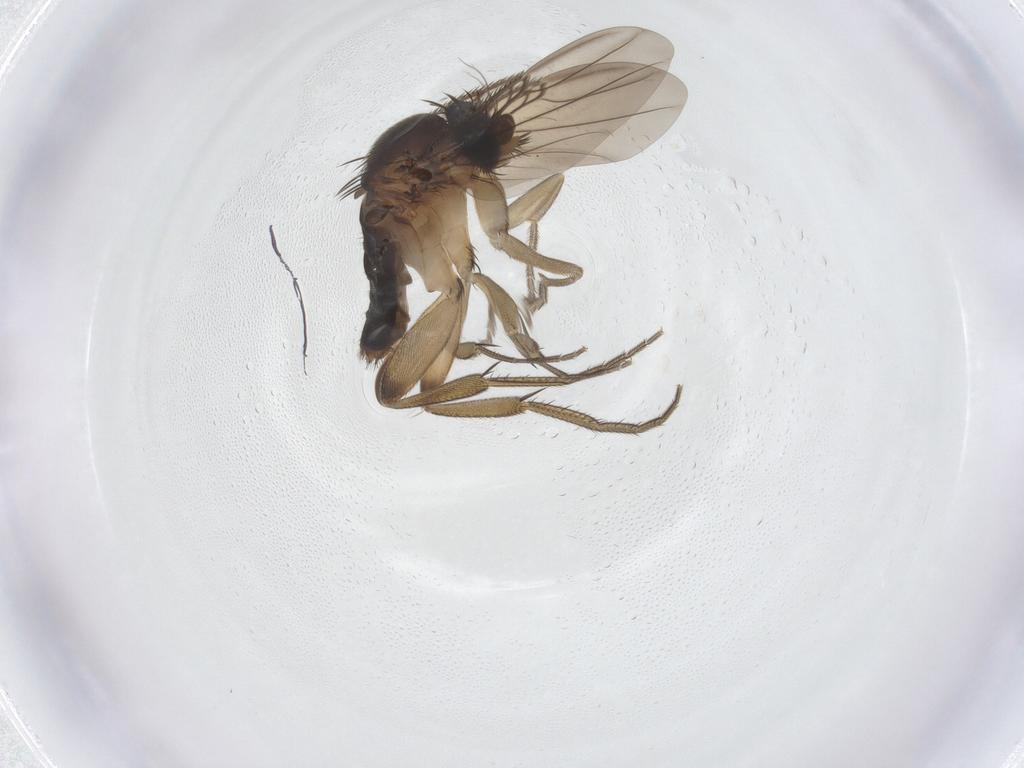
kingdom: Animalia
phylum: Arthropoda
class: Insecta
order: Diptera
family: Phoridae
